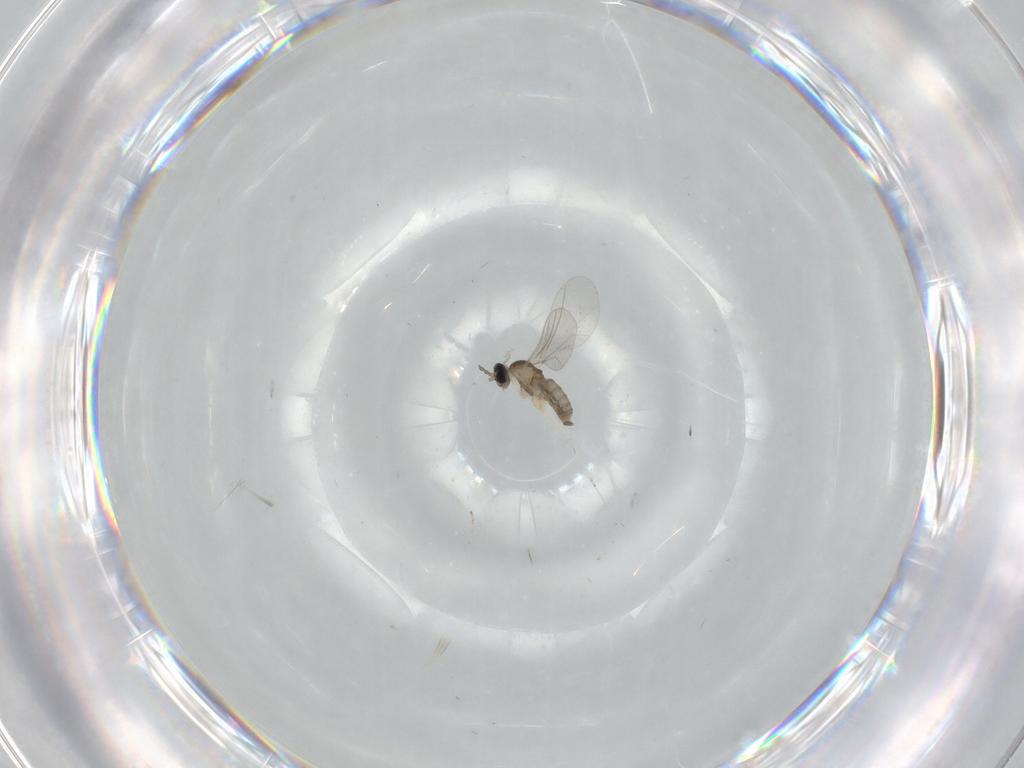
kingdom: Animalia
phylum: Arthropoda
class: Insecta
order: Diptera
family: Cecidomyiidae
